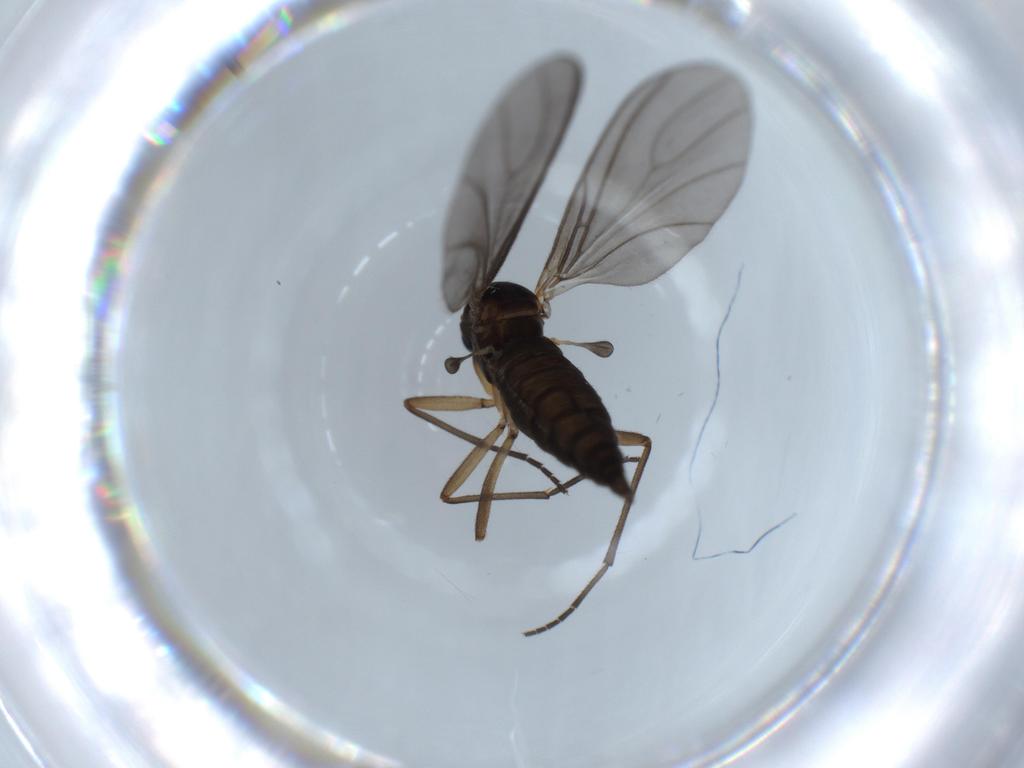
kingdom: Animalia
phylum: Arthropoda
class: Insecta
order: Diptera
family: Sciaridae
